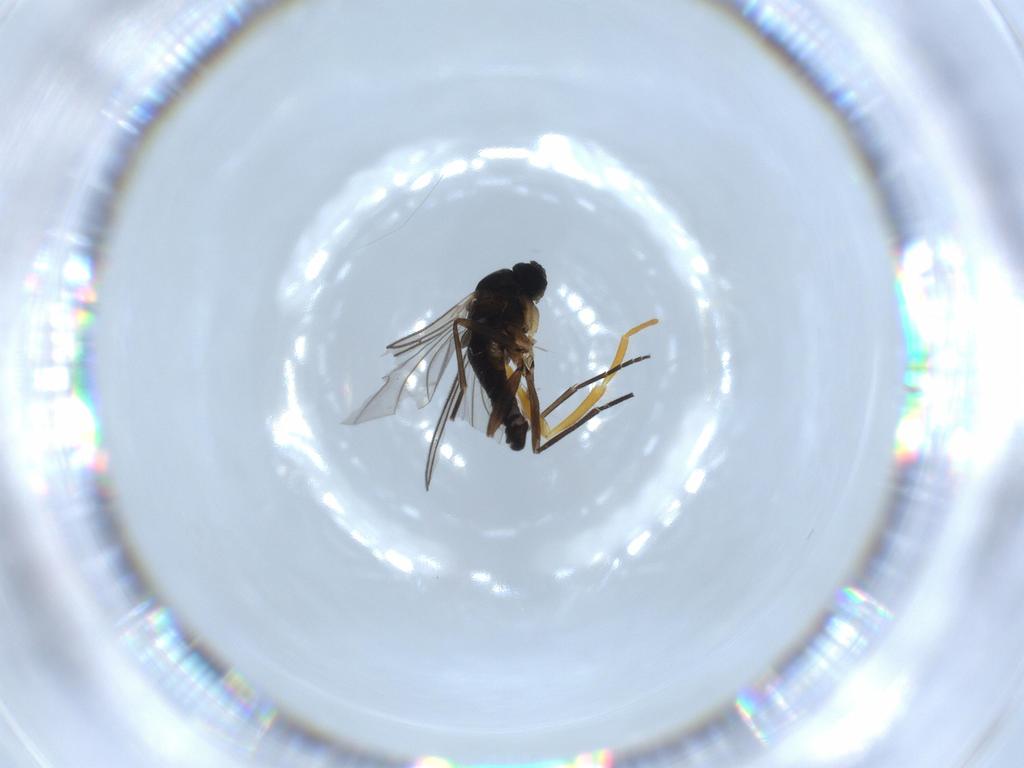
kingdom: Animalia
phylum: Arthropoda
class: Insecta
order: Diptera
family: Sciaridae
